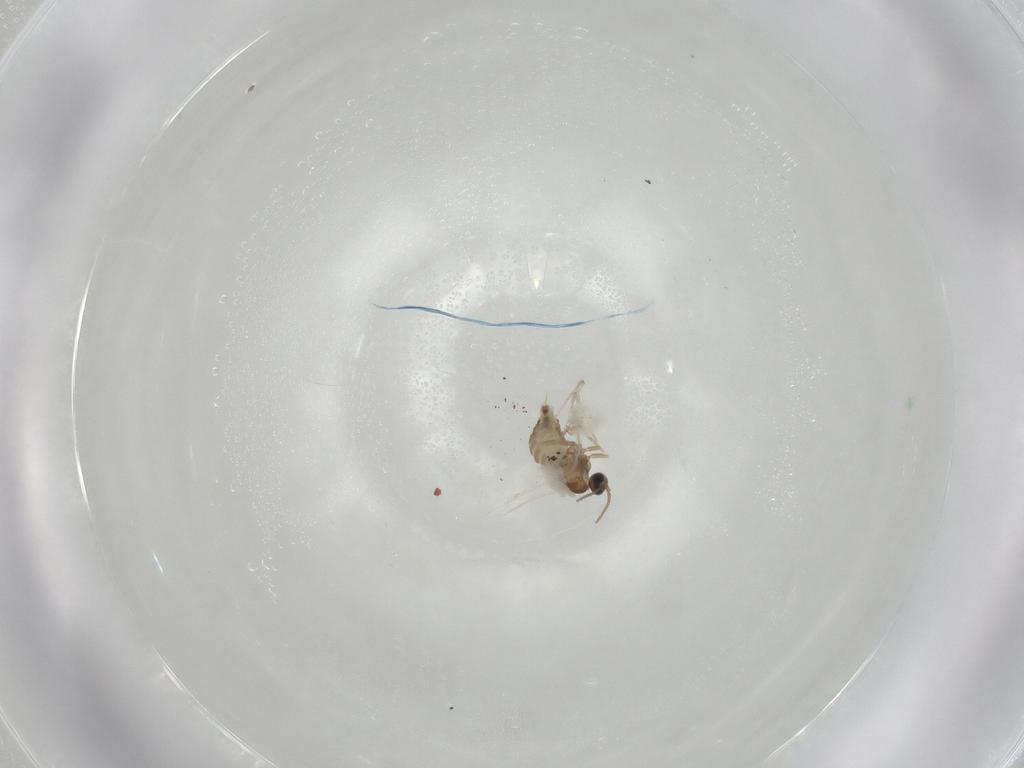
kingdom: Animalia
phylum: Arthropoda
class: Insecta
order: Diptera
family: Cecidomyiidae
